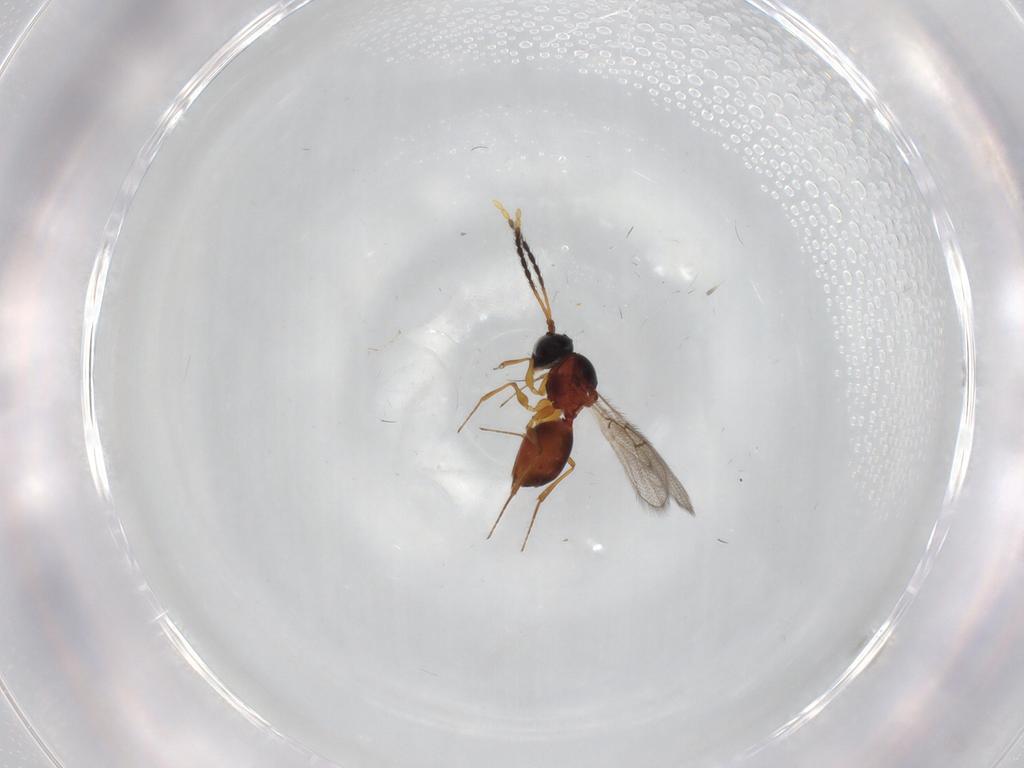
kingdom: Animalia
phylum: Arthropoda
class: Insecta
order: Hymenoptera
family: Figitidae
